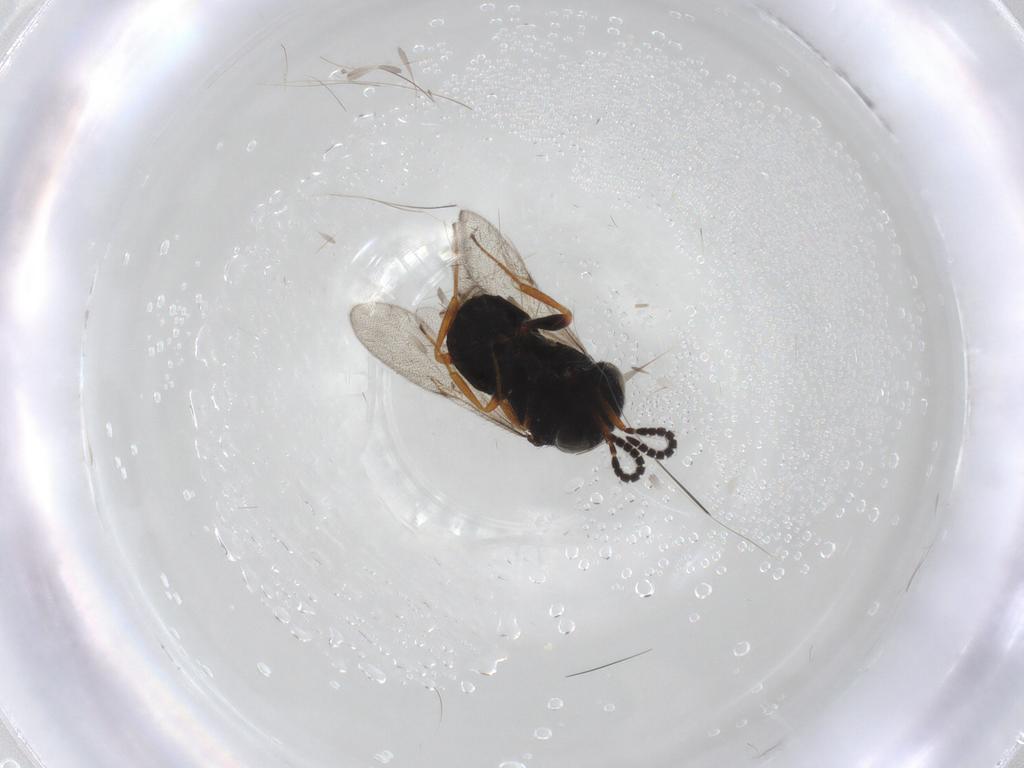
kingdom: Animalia
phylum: Arthropoda
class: Insecta
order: Hymenoptera
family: Scelionidae
